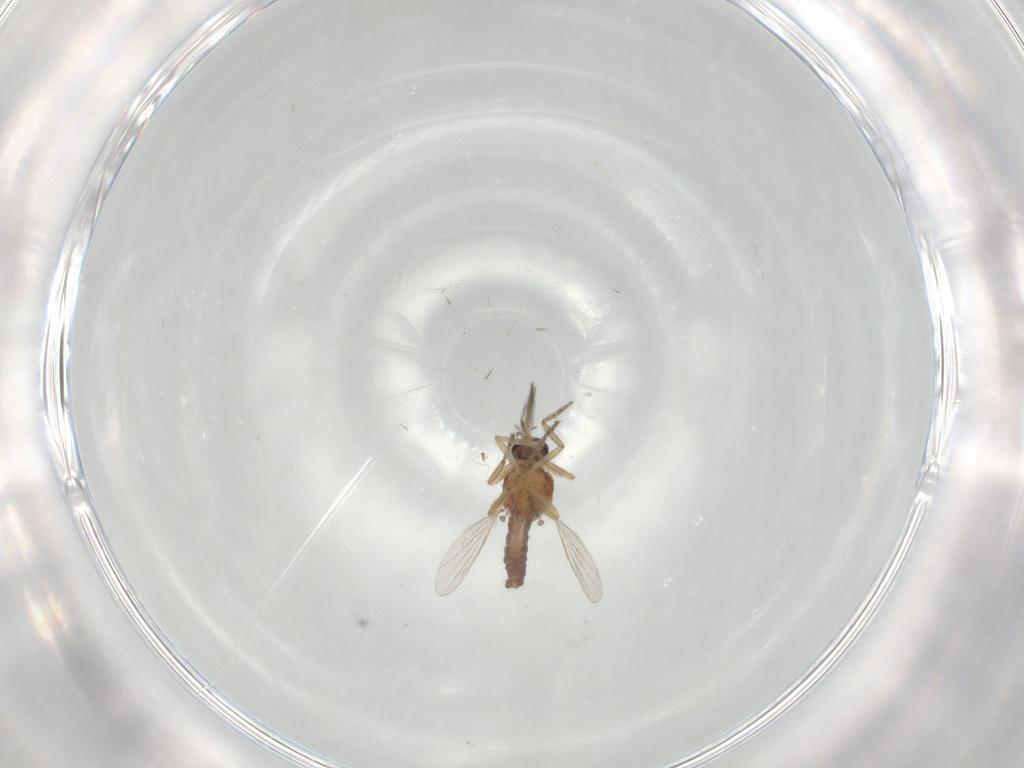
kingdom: Animalia
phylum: Arthropoda
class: Insecta
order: Diptera
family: Ceratopogonidae
